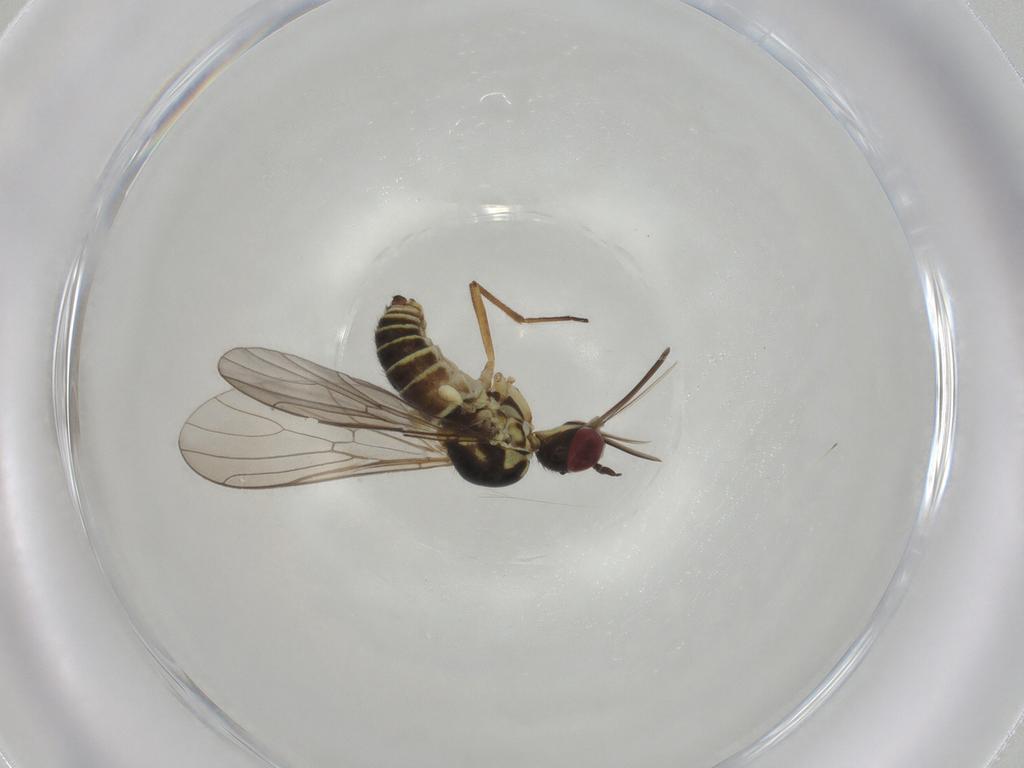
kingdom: Animalia
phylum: Arthropoda
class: Insecta
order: Diptera
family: Mythicomyiidae
